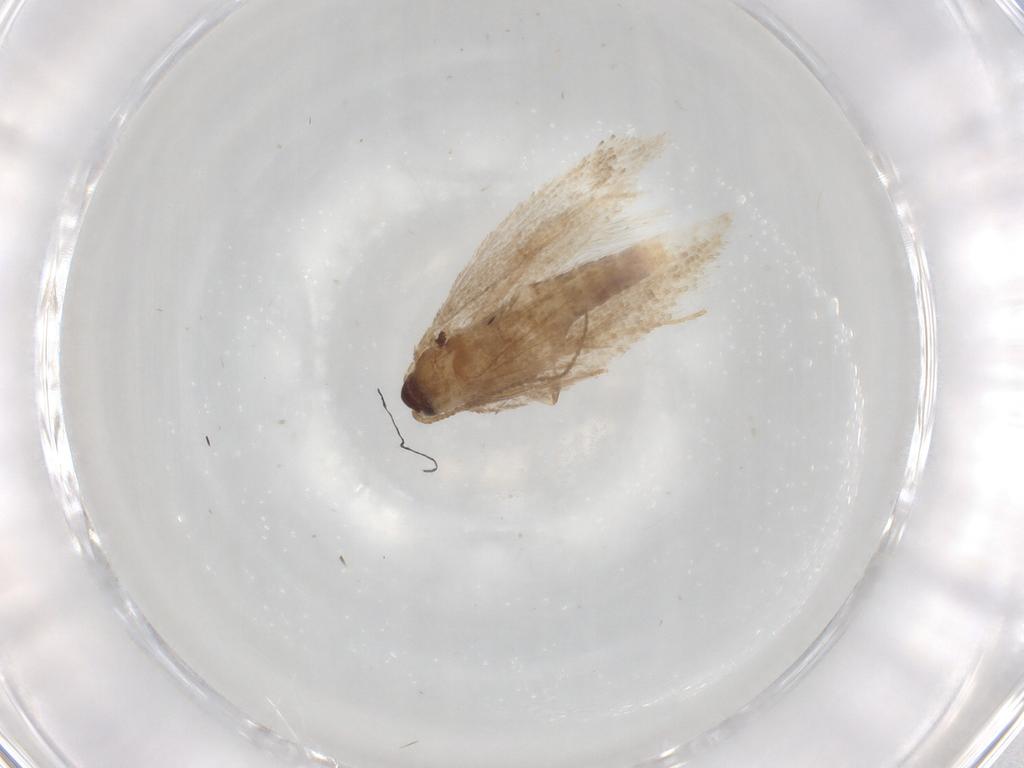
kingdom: Animalia
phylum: Arthropoda
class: Insecta
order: Lepidoptera
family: Nepticulidae
